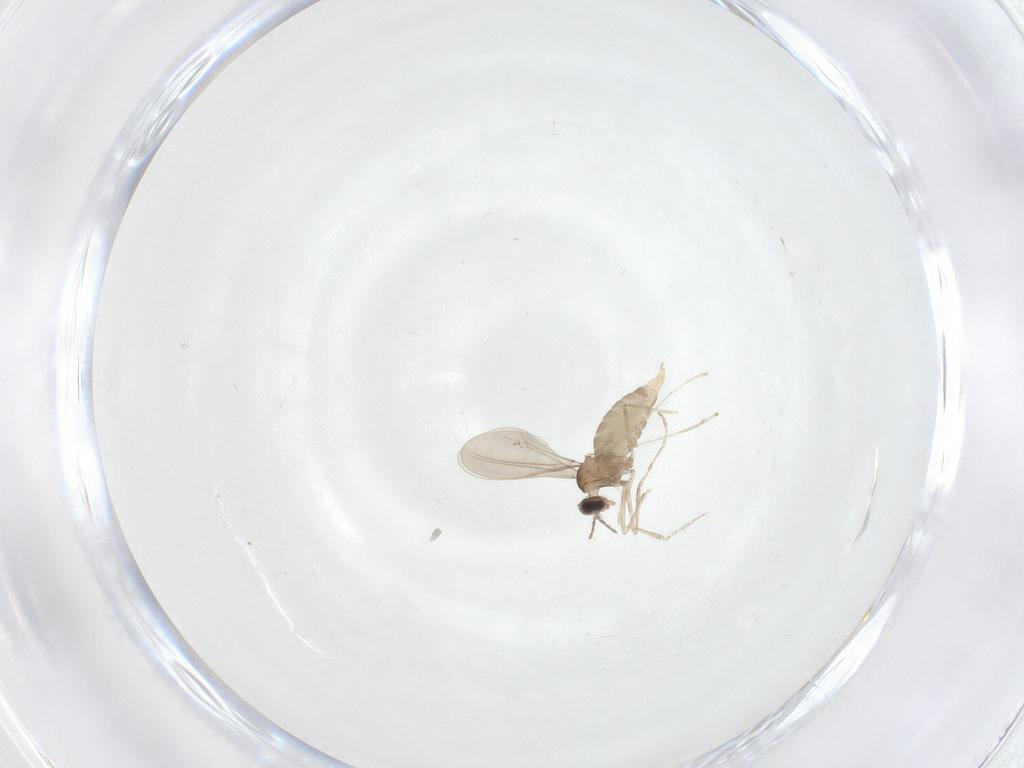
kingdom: Animalia
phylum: Arthropoda
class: Insecta
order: Diptera
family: Cecidomyiidae
